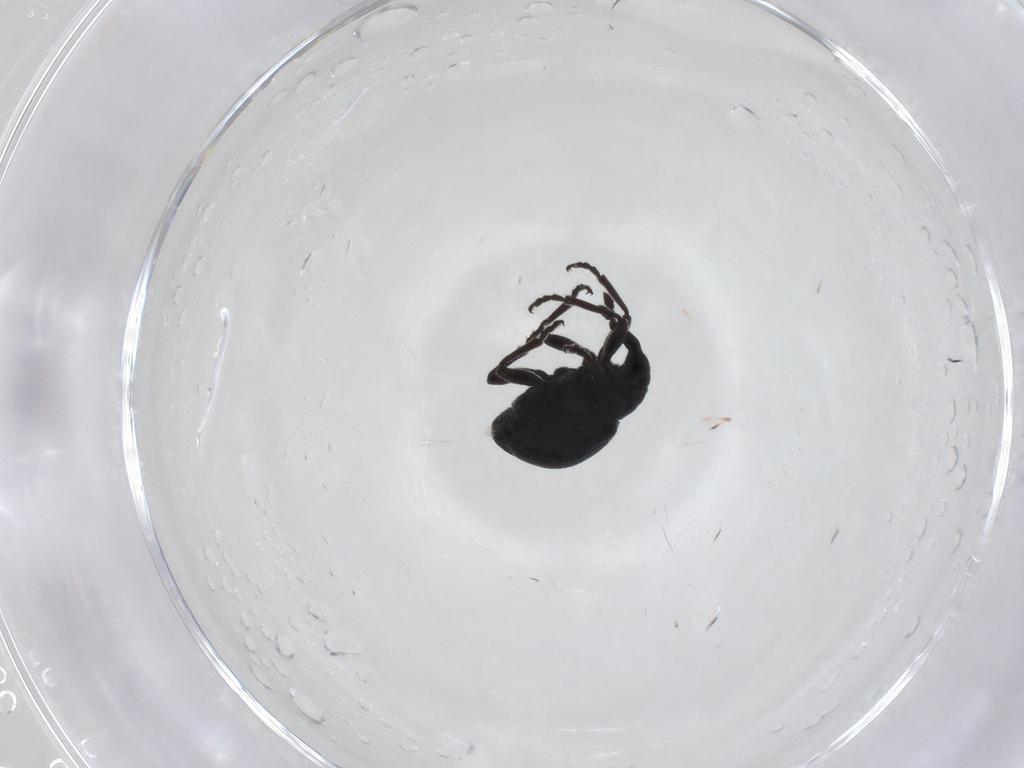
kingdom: Animalia
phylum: Arthropoda
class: Insecta
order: Coleoptera
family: Brentidae
